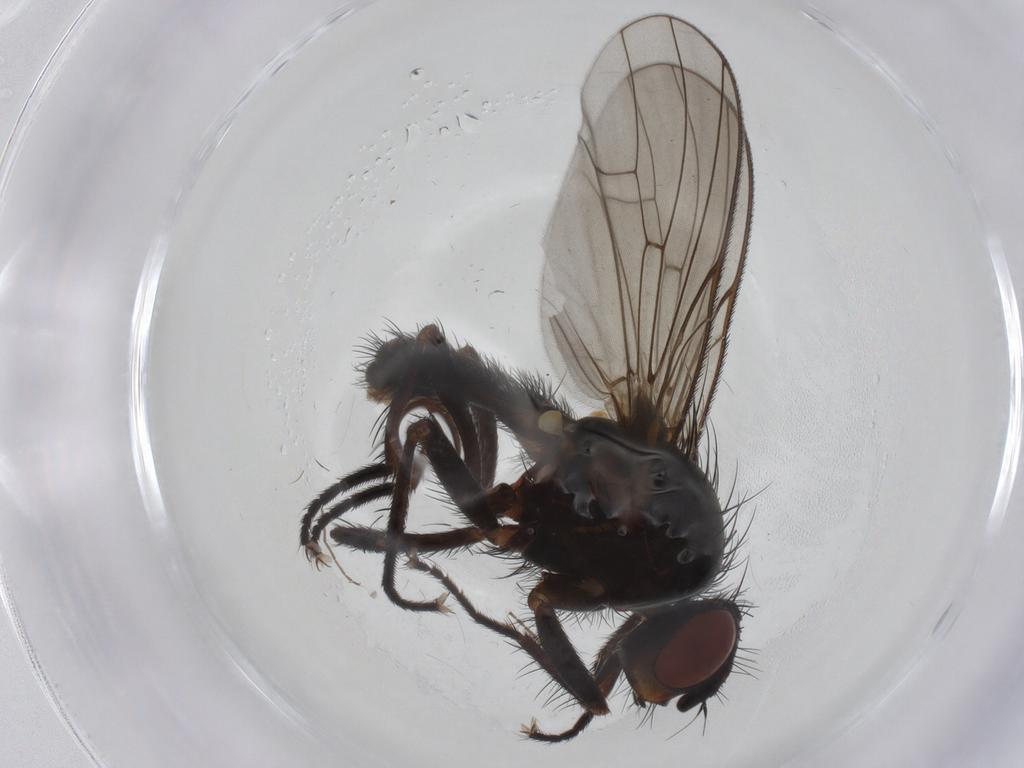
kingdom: Animalia
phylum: Arthropoda
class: Insecta
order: Diptera
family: Anthomyiidae
